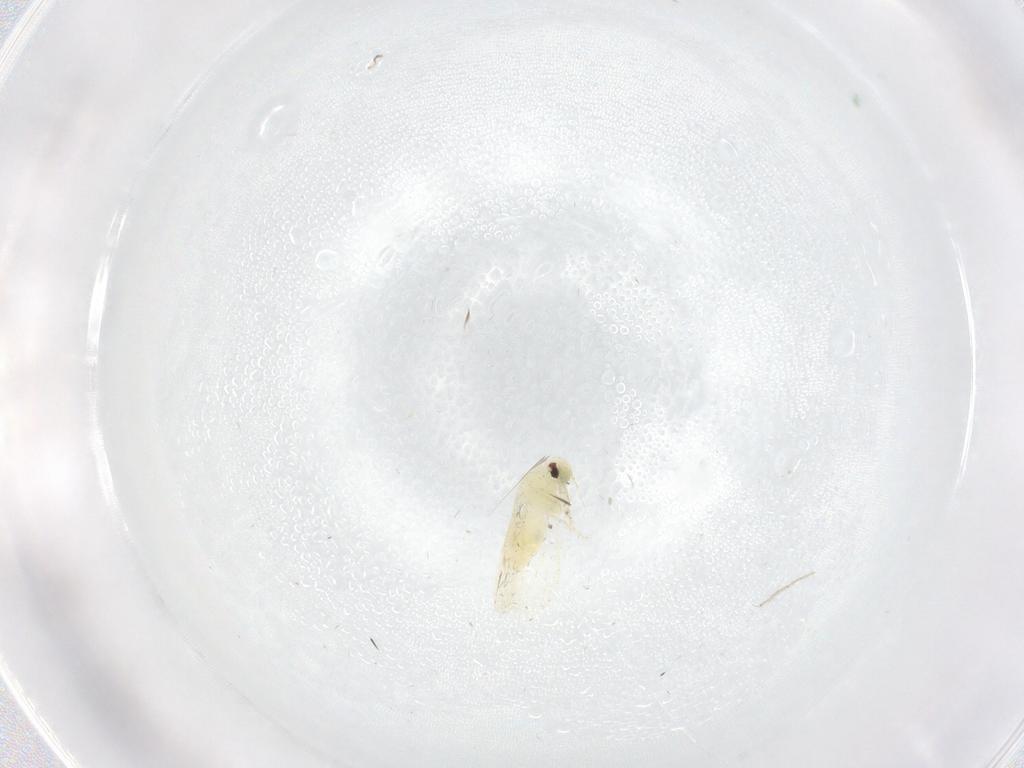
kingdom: Animalia
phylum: Arthropoda
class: Insecta
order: Hemiptera
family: Aleyrodidae
